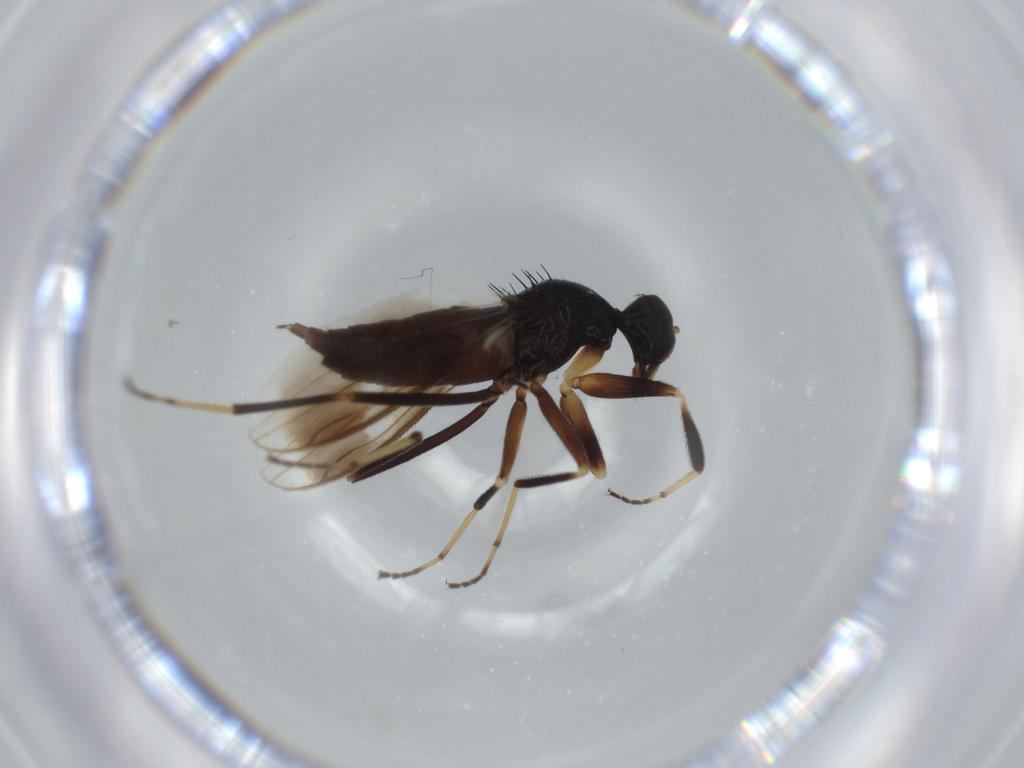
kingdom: Animalia
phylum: Arthropoda
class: Insecta
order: Diptera
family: Hybotidae
